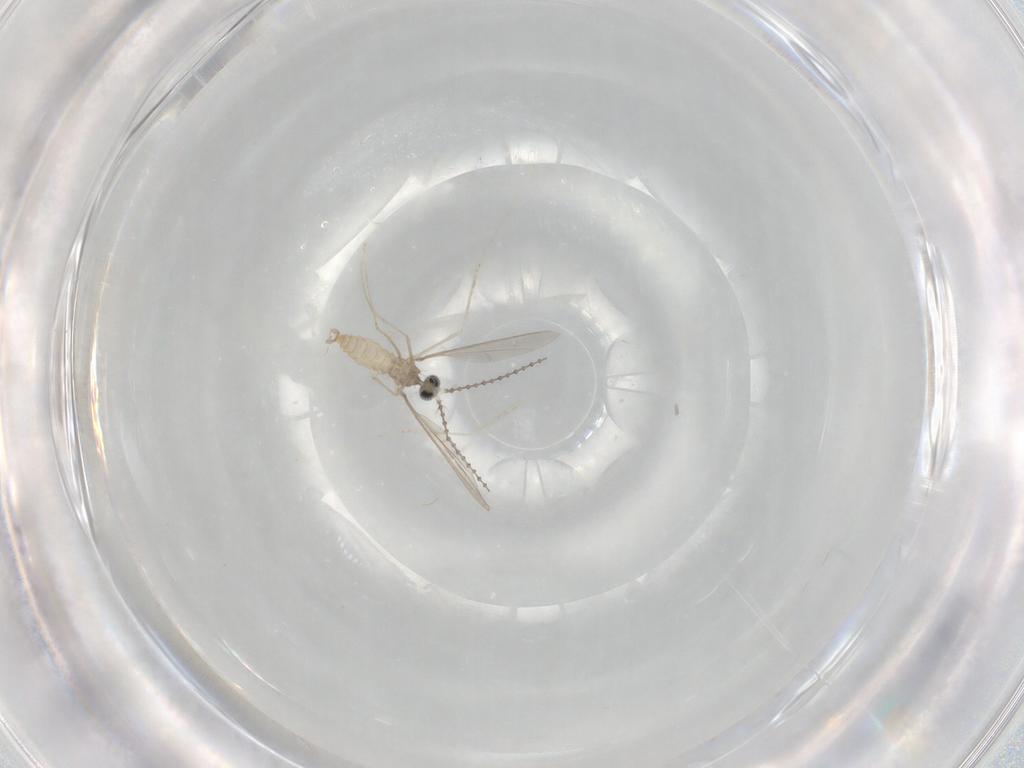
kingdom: Animalia
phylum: Arthropoda
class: Insecta
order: Diptera
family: Cecidomyiidae
